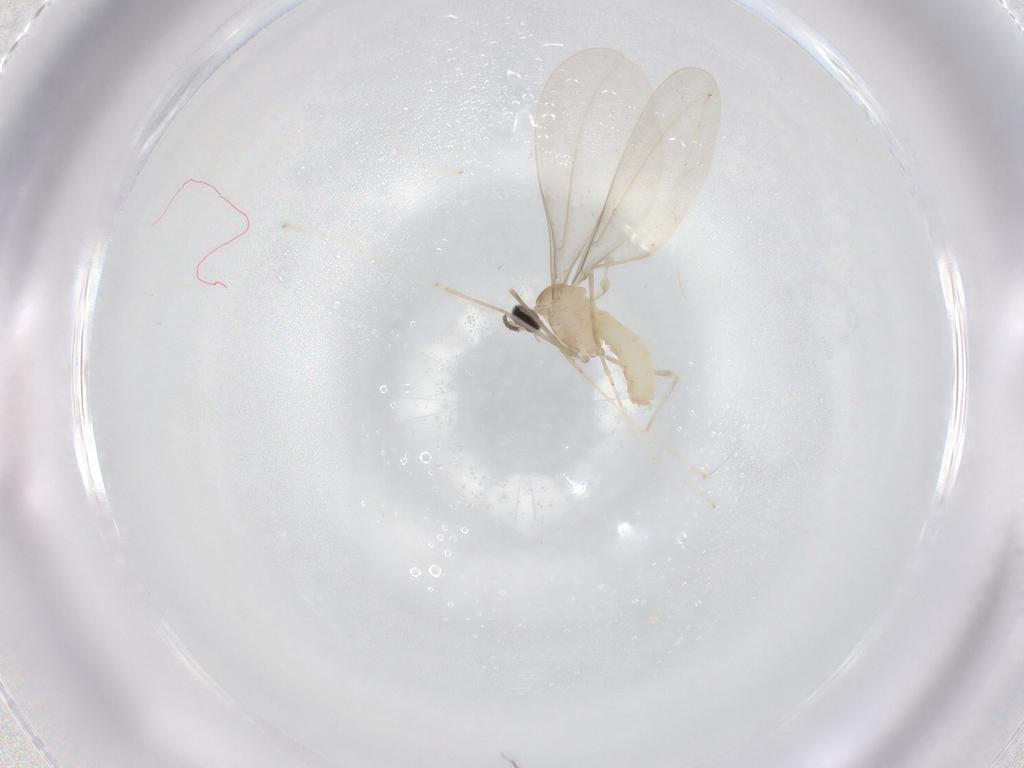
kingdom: Animalia
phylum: Arthropoda
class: Insecta
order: Diptera
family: Cecidomyiidae
